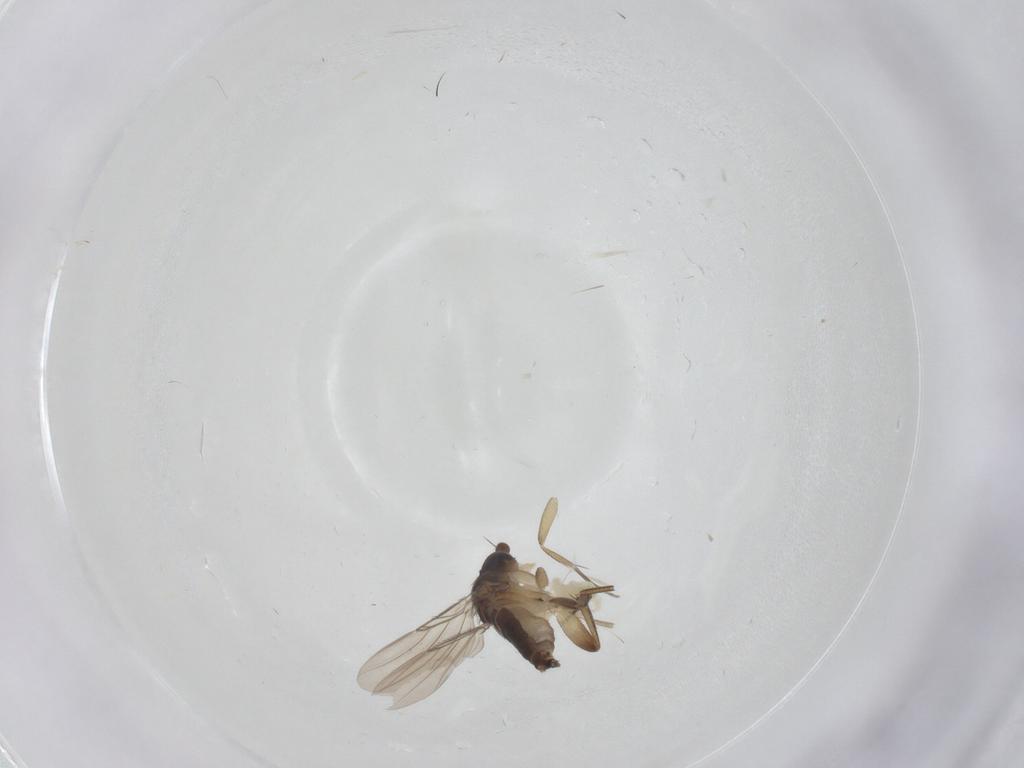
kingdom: Animalia
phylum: Arthropoda
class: Insecta
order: Diptera
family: Phoridae
